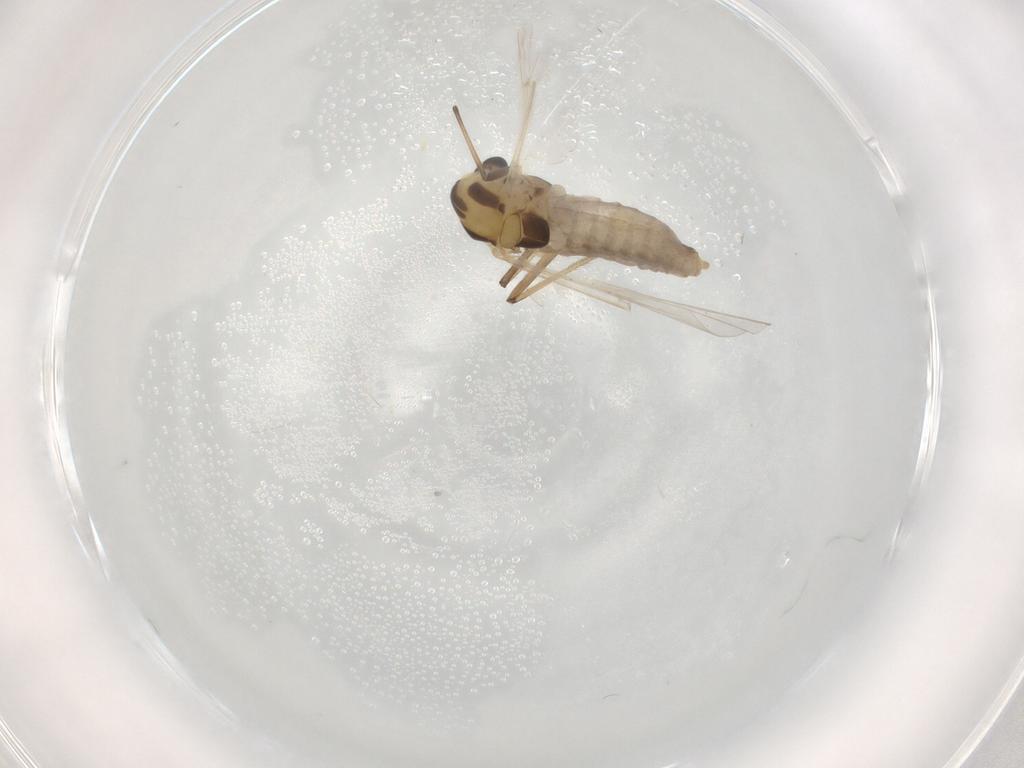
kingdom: Animalia
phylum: Arthropoda
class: Insecta
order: Diptera
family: Chironomidae
